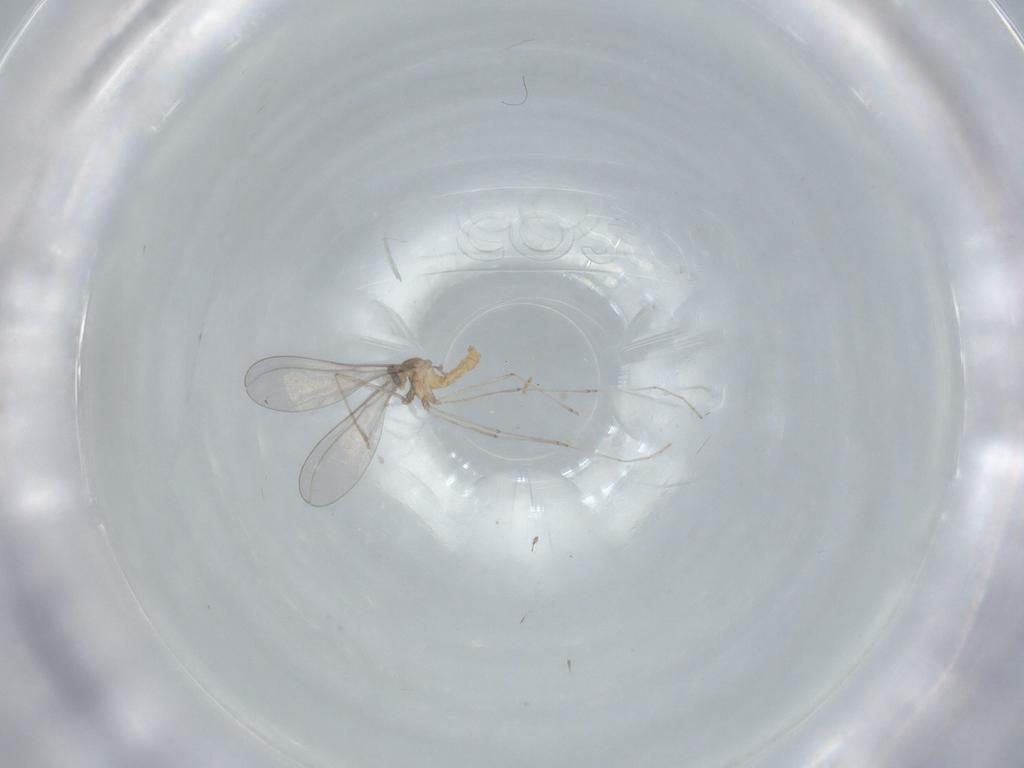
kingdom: Animalia
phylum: Arthropoda
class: Insecta
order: Diptera
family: Cecidomyiidae
